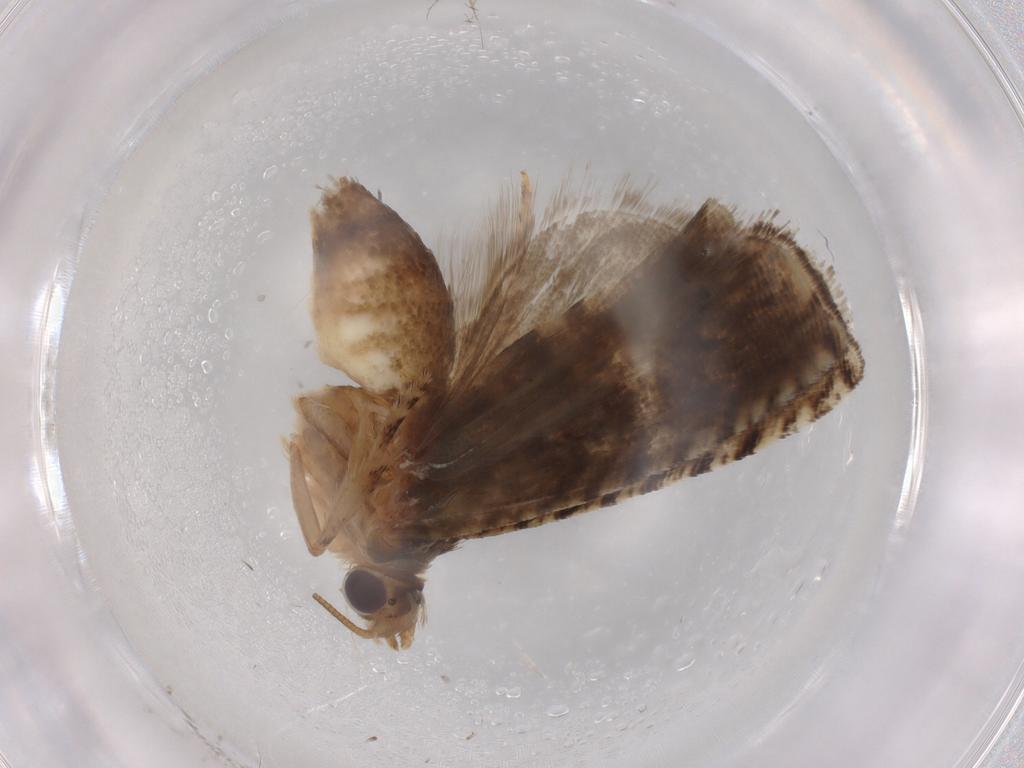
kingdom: Animalia
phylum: Arthropoda
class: Insecta
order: Lepidoptera
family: Tortricidae
